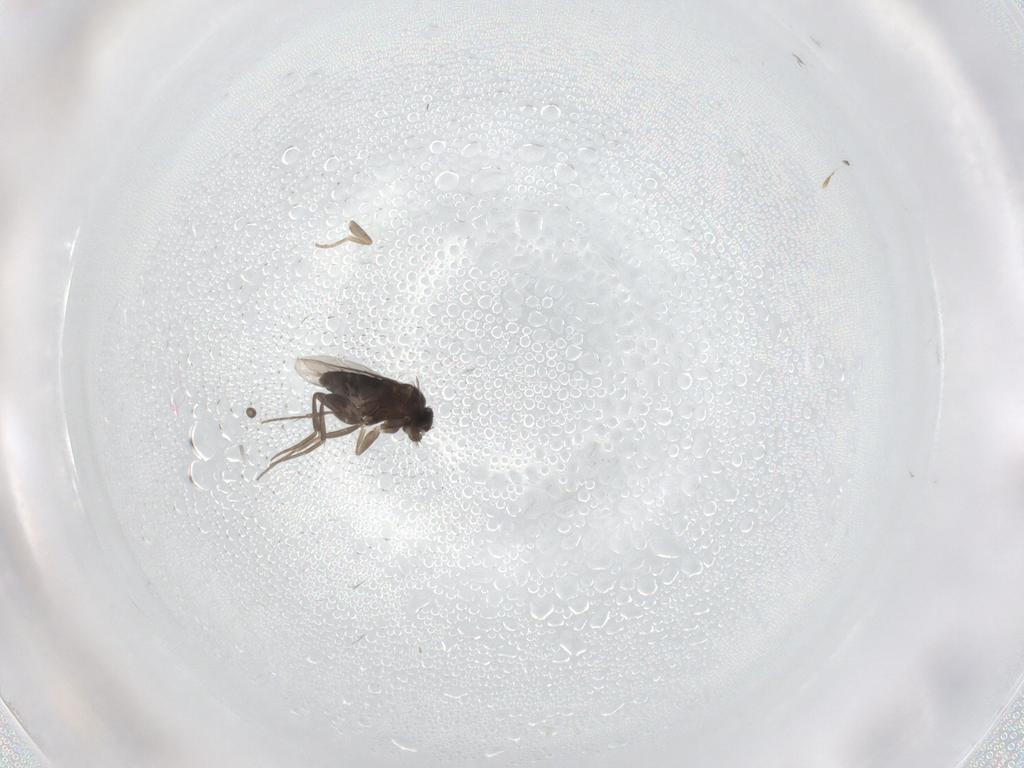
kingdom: Animalia
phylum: Arthropoda
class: Insecta
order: Diptera
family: Phoridae
